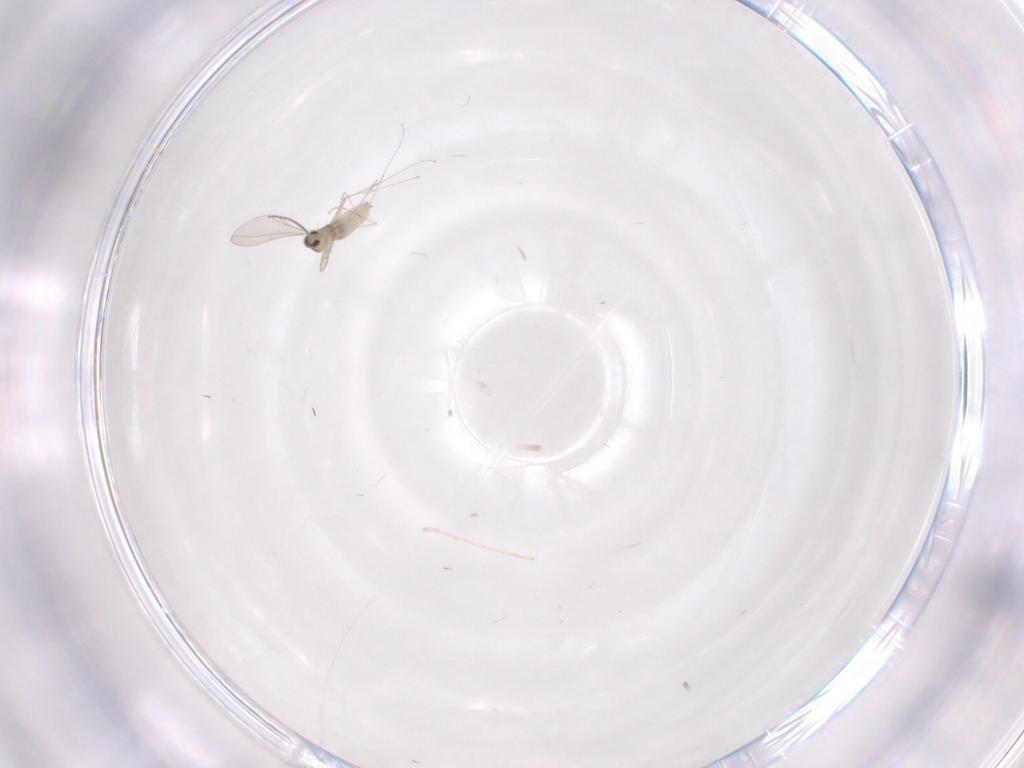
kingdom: Animalia
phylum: Arthropoda
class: Insecta
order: Diptera
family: Cecidomyiidae
